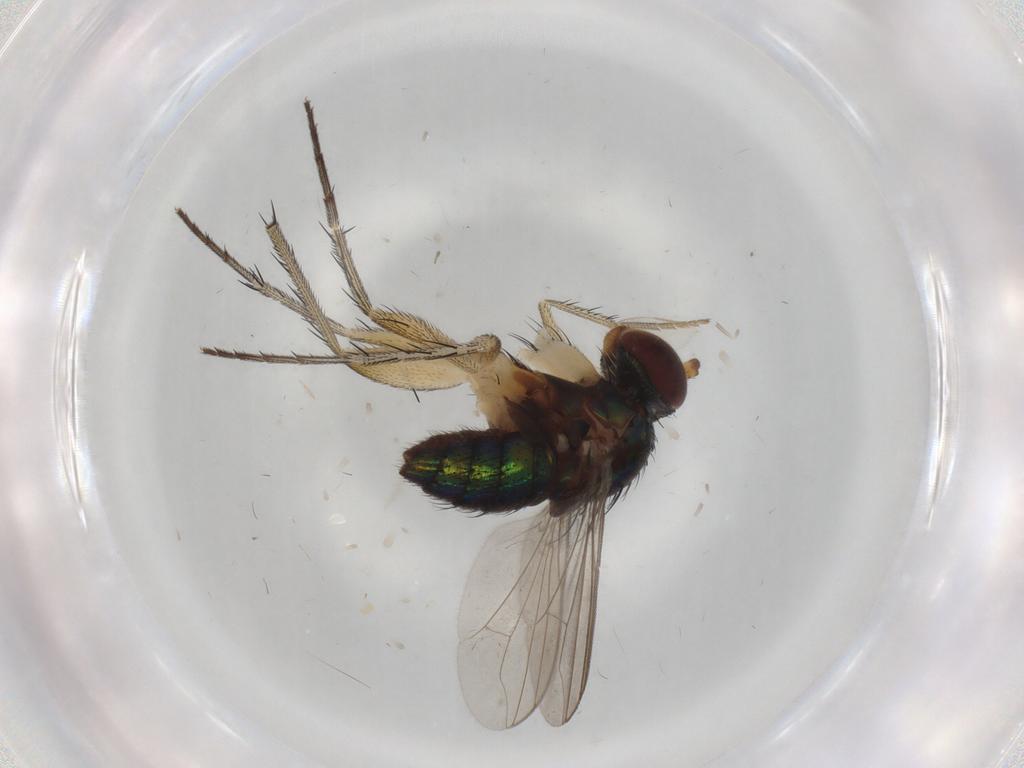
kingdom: Animalia
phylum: Arthropoda
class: Insecta
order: Diptera
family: Dolichopodidae
